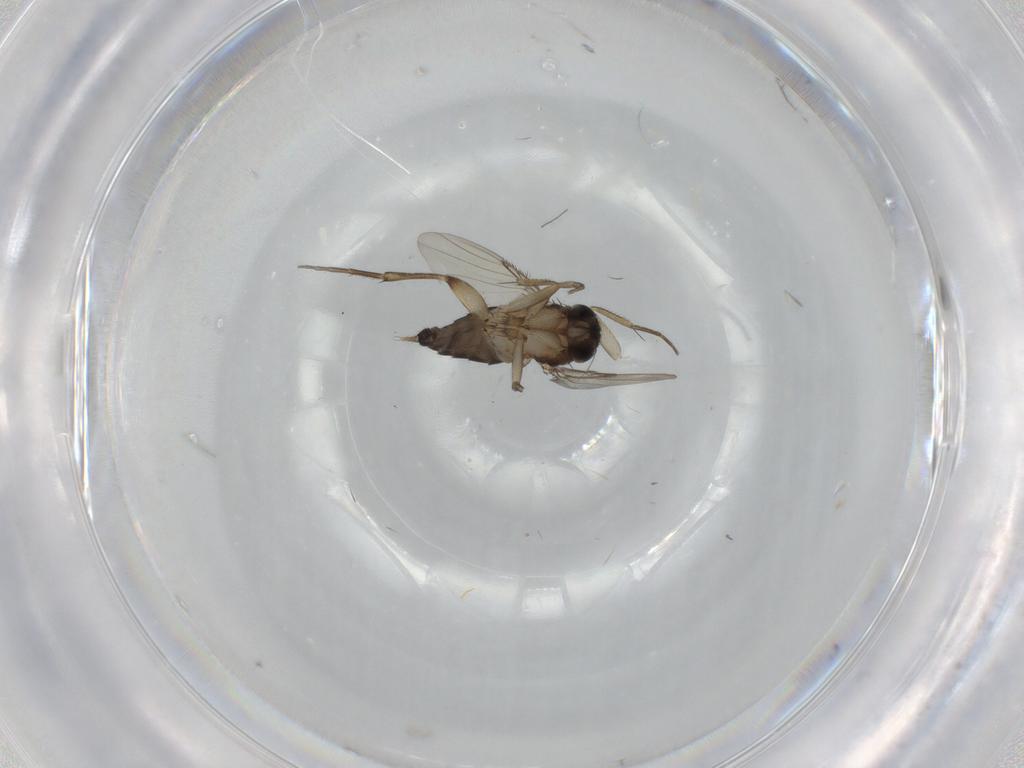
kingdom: Animalia
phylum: Arthropoda
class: Insecta
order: Diptera
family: Phoridae
